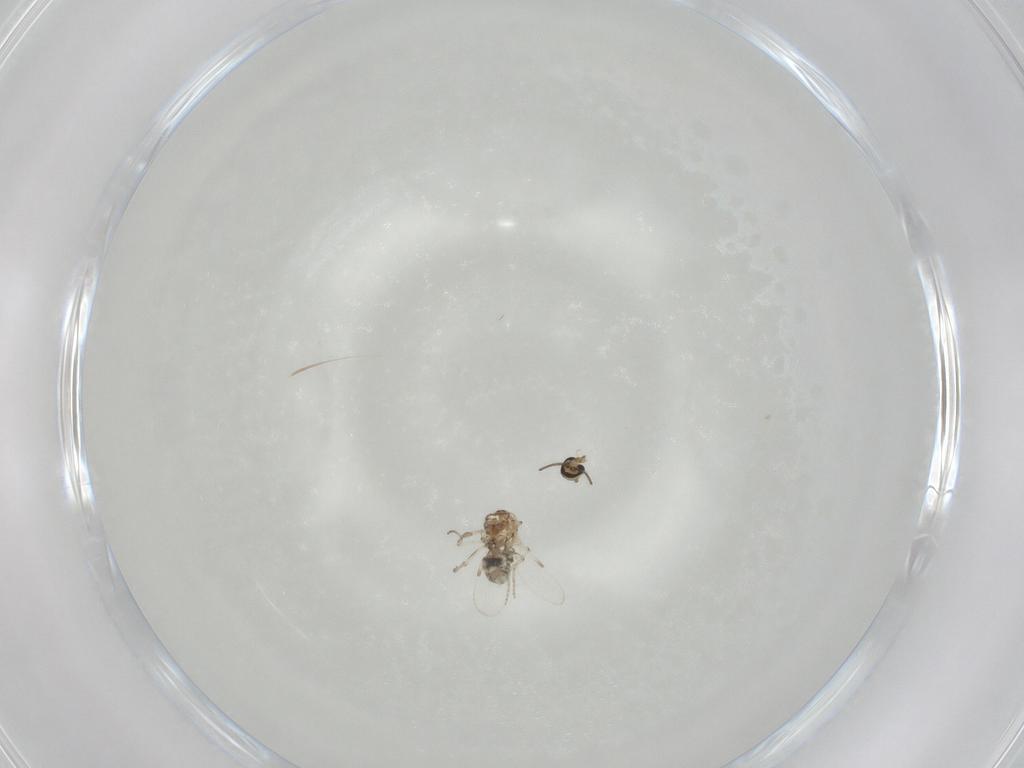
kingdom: Animalia
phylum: Arthropoda
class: Insecta
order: Diptera
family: Ceratopogonidae
